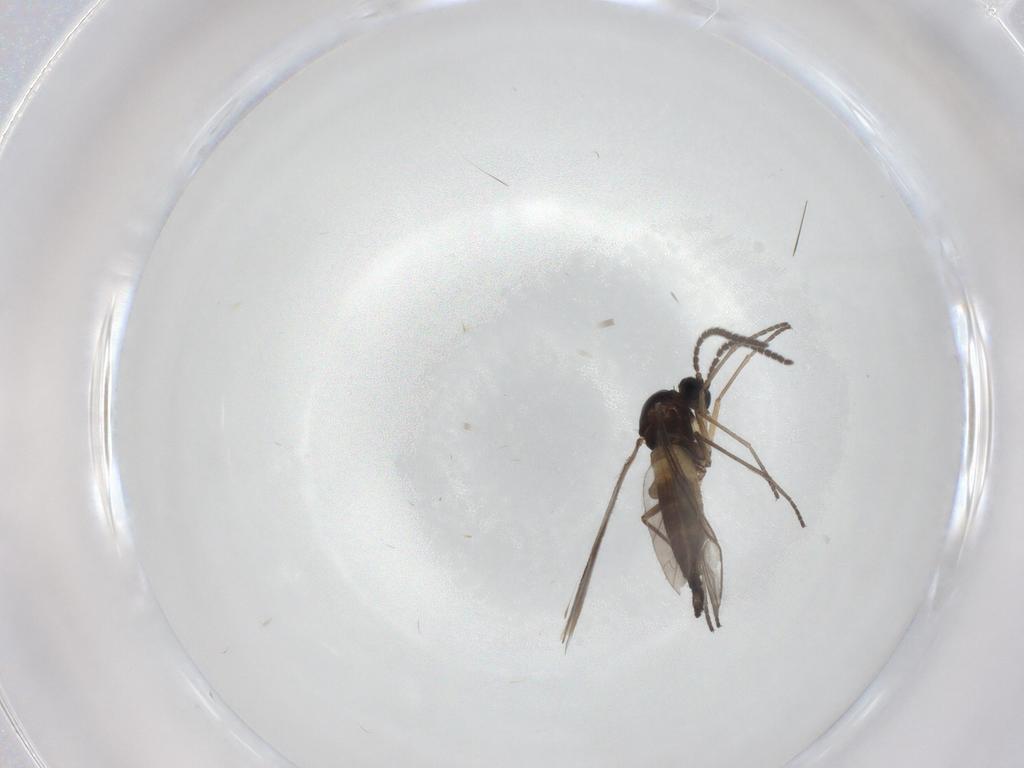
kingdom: Animalia
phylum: Arthropoda
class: Insecta
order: Diptera
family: Sciaridae
